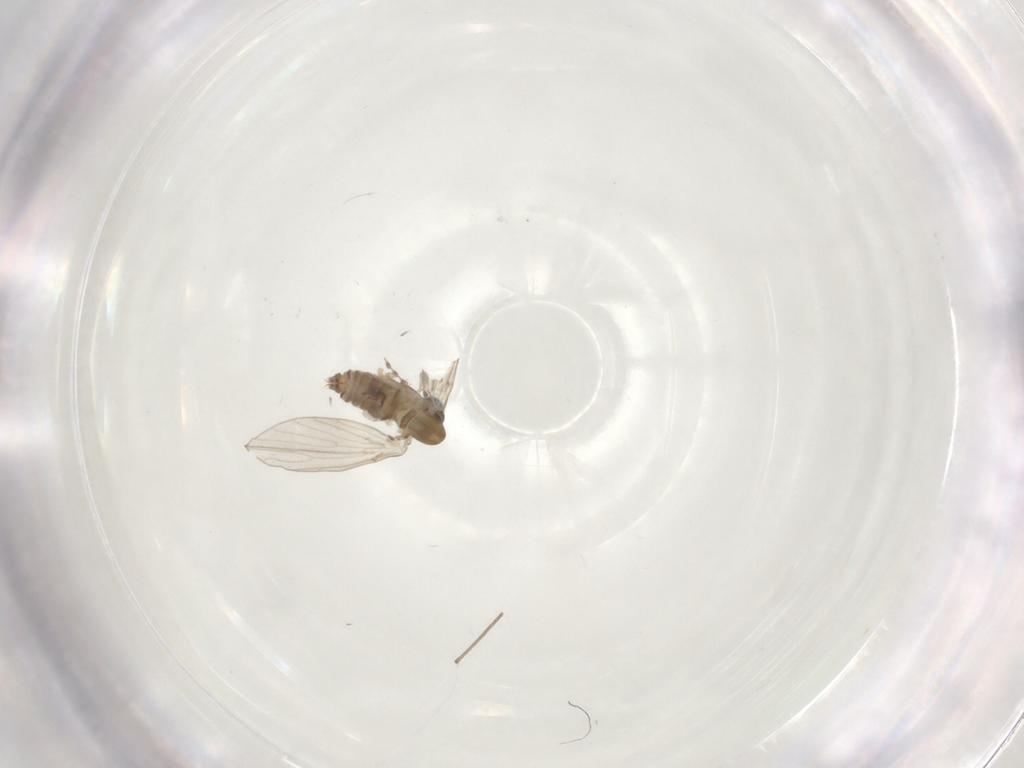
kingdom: Animalia
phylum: Arthropoda
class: Insecta
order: Diptera
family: Limoniidae
